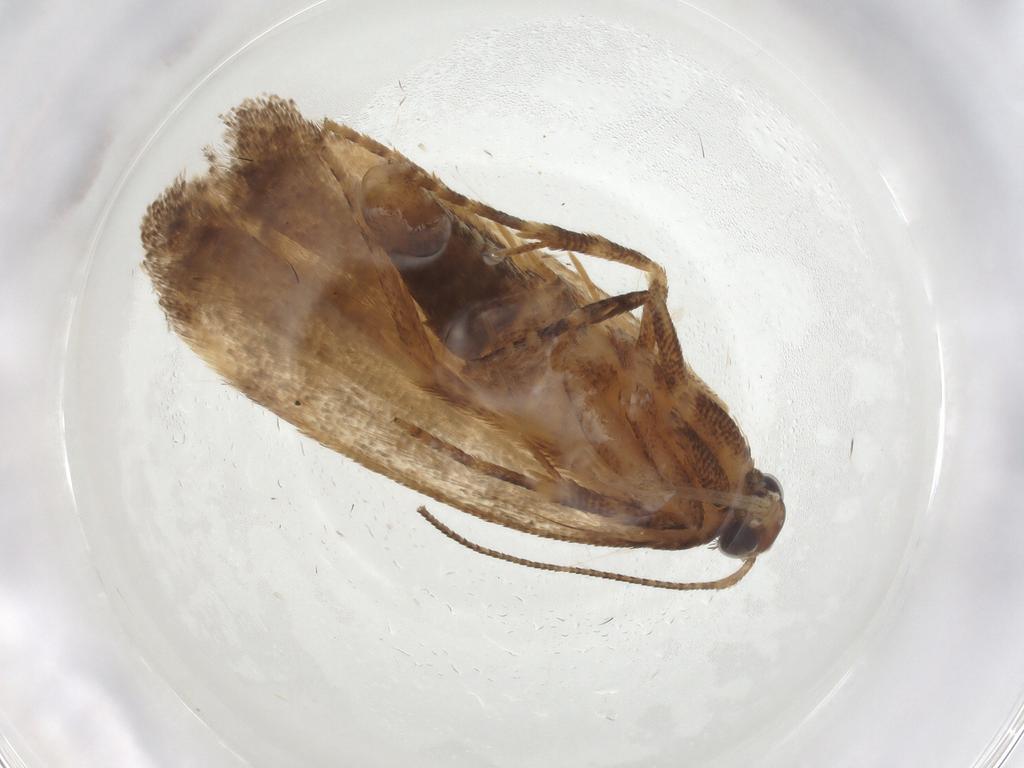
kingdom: Animalia
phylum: Arthropoda
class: Insecta
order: Lepidoptera
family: Gelechiidae
